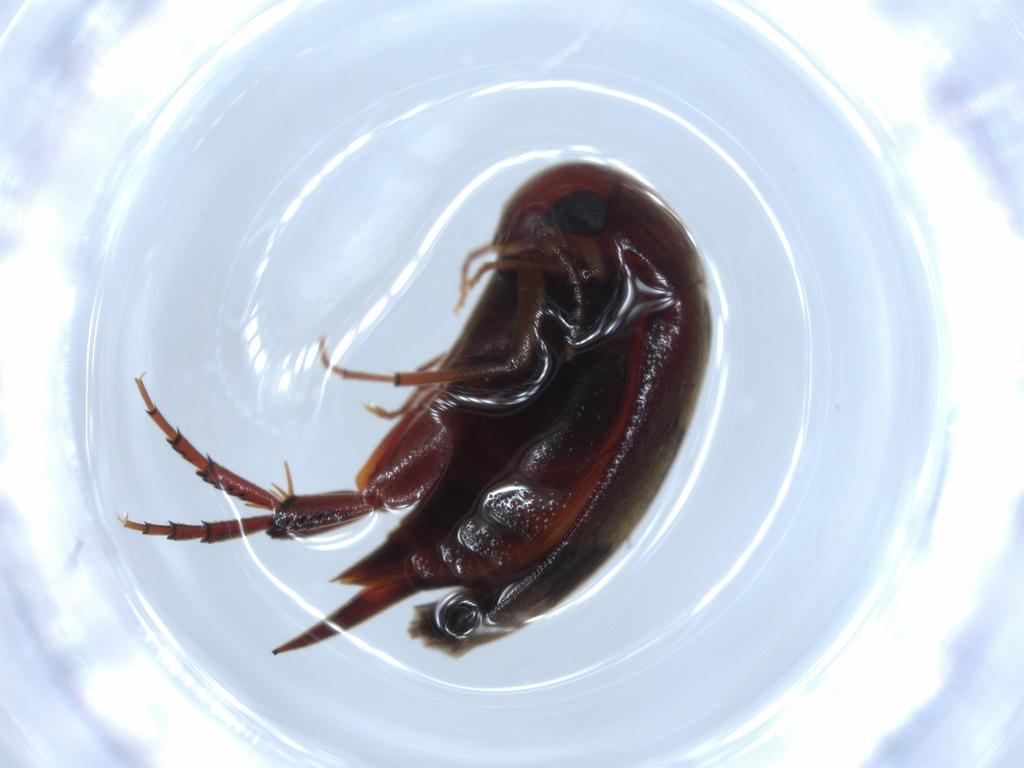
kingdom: Animalia
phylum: Arthropoda
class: Insecta
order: Coleoptera
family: Mordellidae
